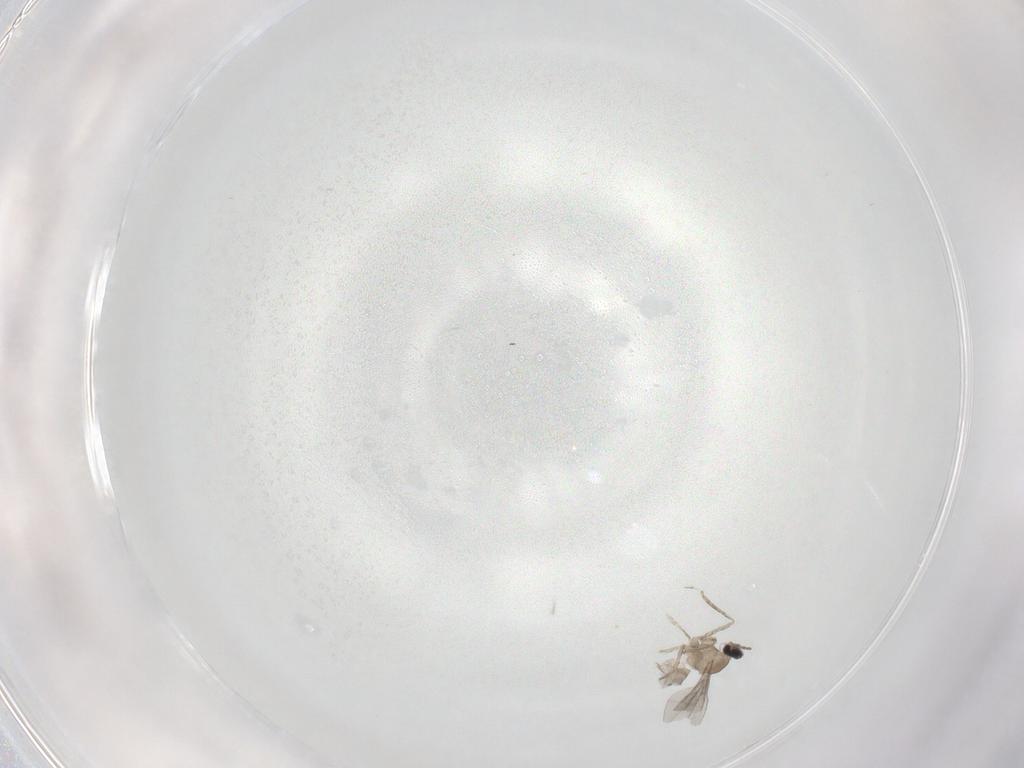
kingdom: Animalia
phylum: Arthropoda
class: Insecta
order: Diptera
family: Cecidomyiidae
